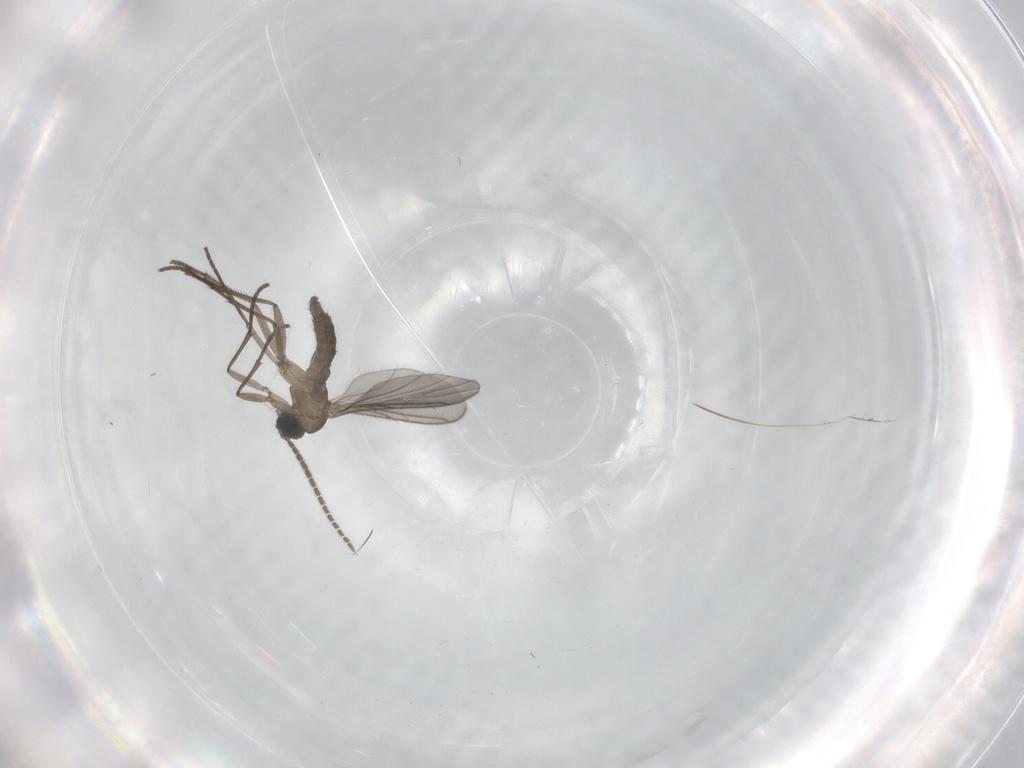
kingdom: Animalia
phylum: Arthropoda
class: Insecta
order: Diptera
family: Sciaridae
